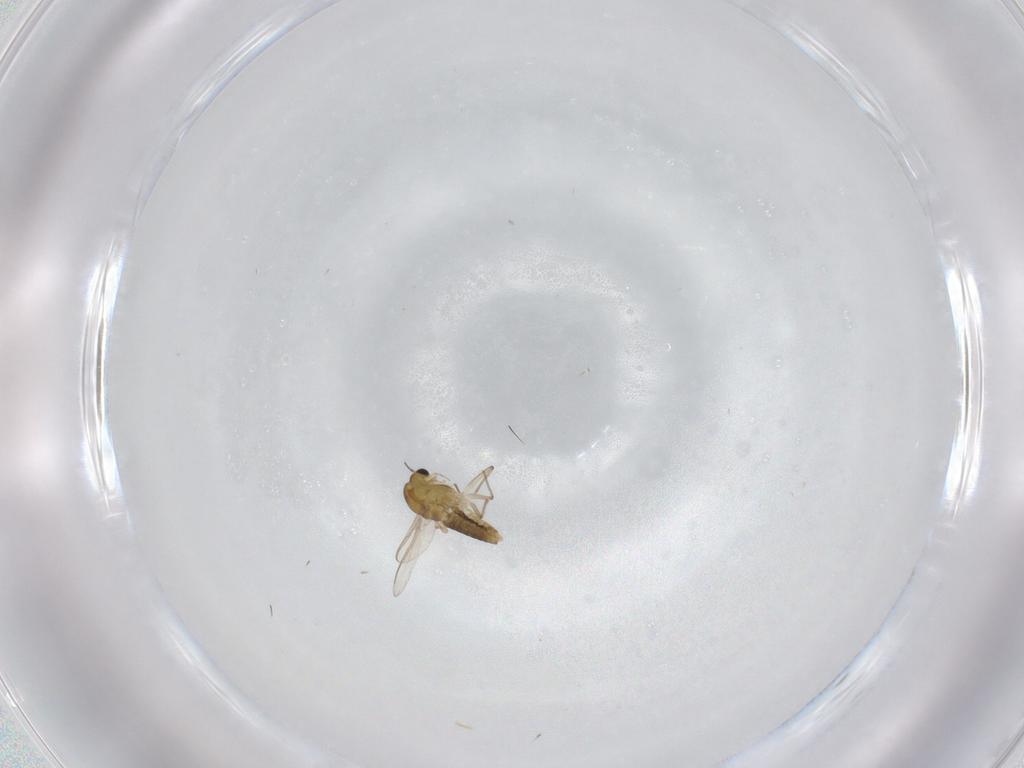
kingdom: Animalia
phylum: Arthropoda
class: Insecta
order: Diptera
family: Chironomidae
